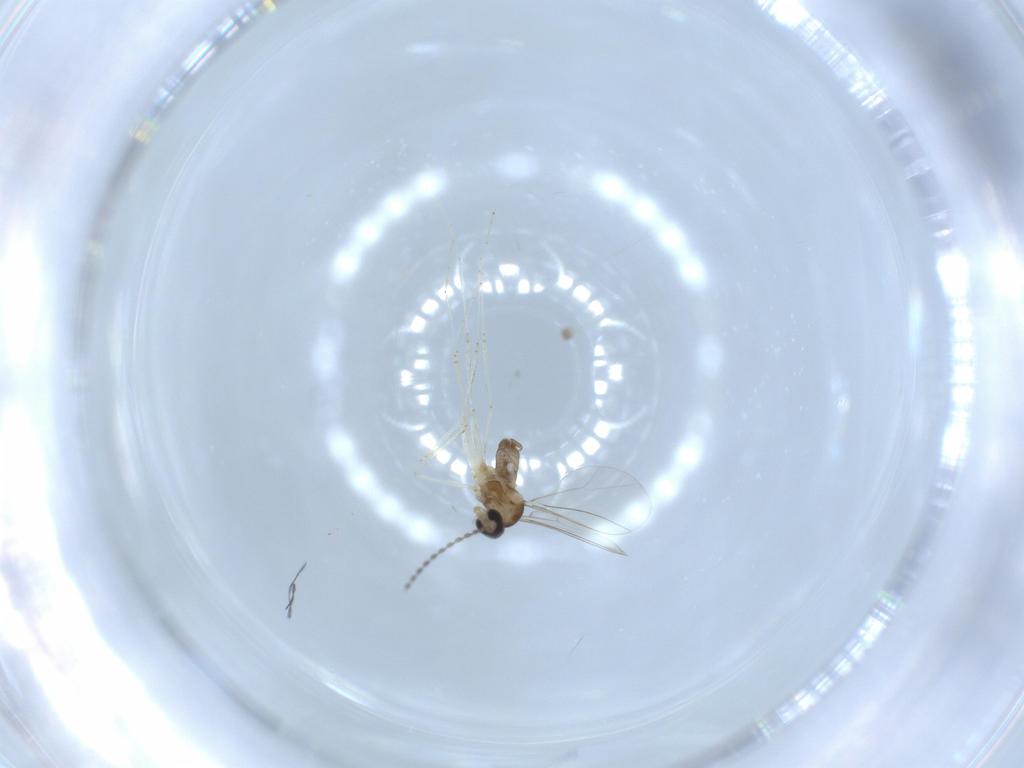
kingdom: Animalia
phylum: Arthropoda
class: Insecta
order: Diptera
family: Cecidomyiidae
